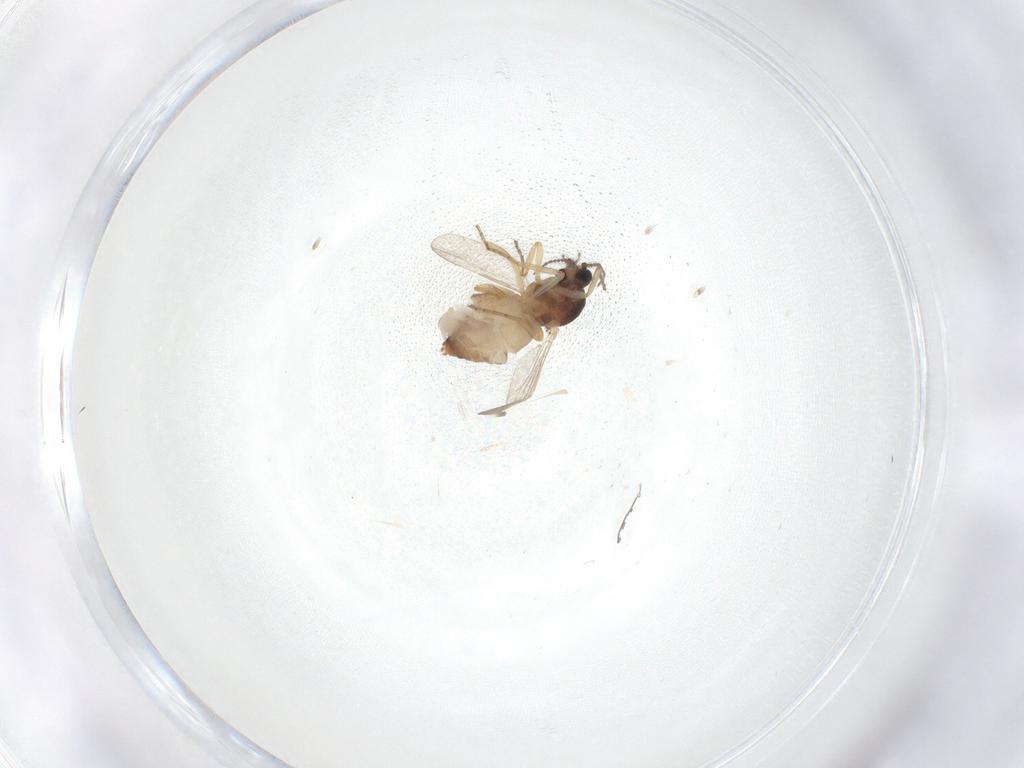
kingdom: Animalia
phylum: Arthropoda
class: Insecta
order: Diptera
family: Ceratopogonidae
